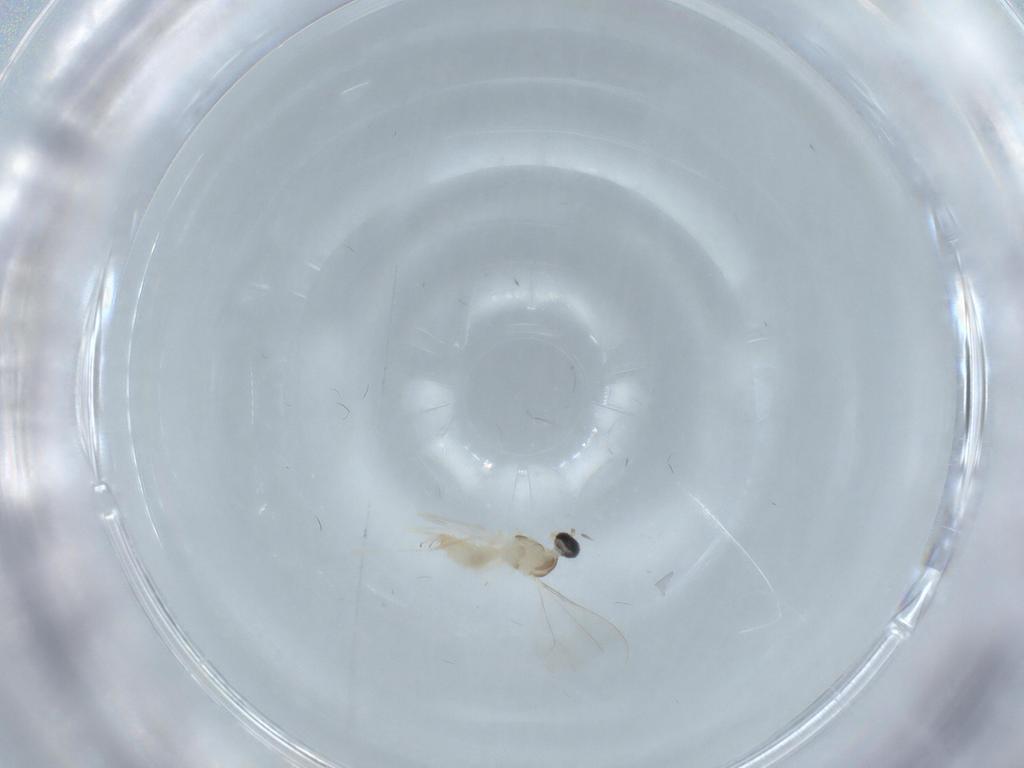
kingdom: Animalia
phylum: Arthropoda
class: Insecta
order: Diptera
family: Cecidomyiidae
